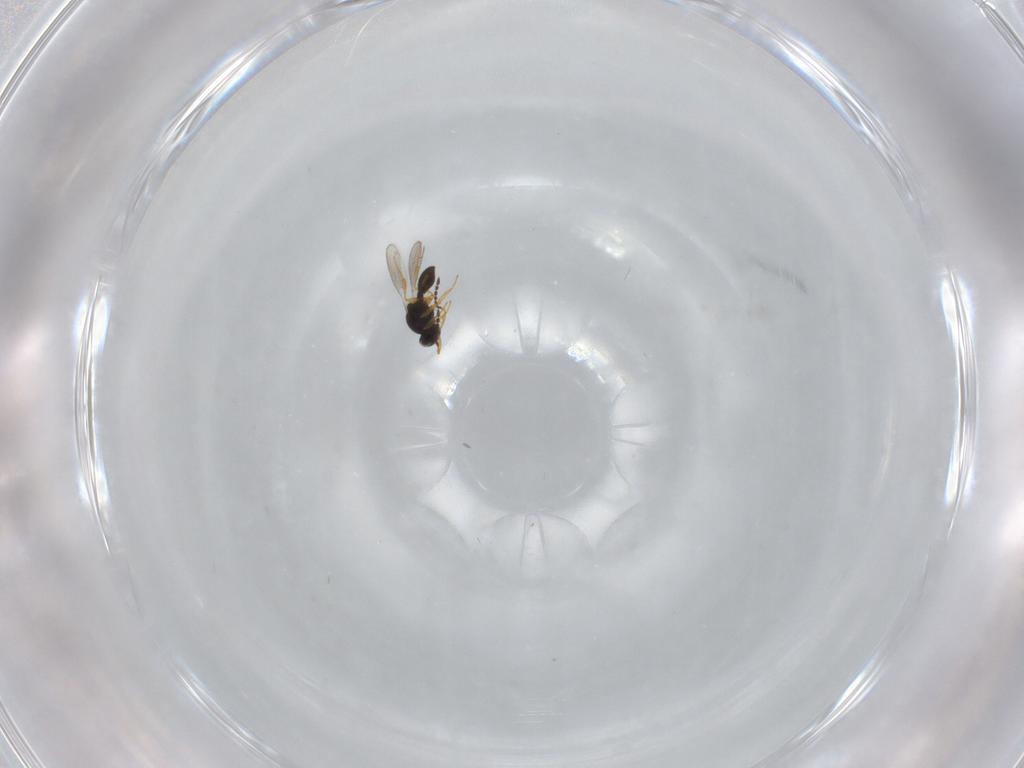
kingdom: Animalia
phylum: Arthropoda
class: Insecta
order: Hymenoptera
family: Platygastridae
